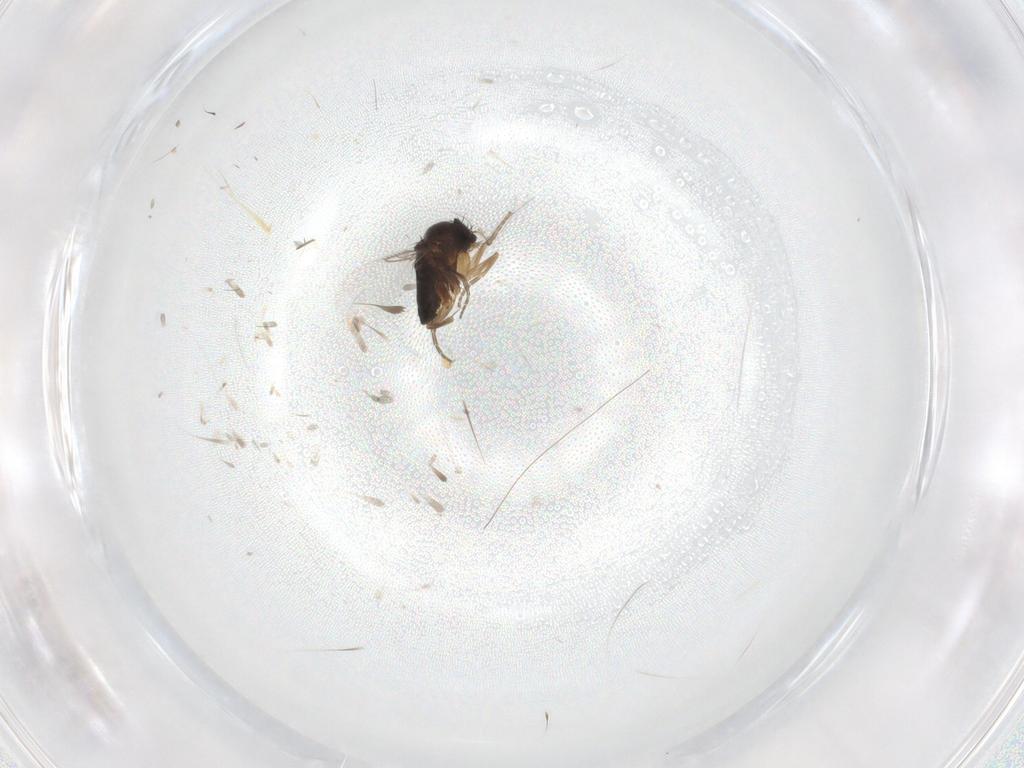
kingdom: Animalia
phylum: Arthropoda
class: Insecta
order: Diptera
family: Phoridae
